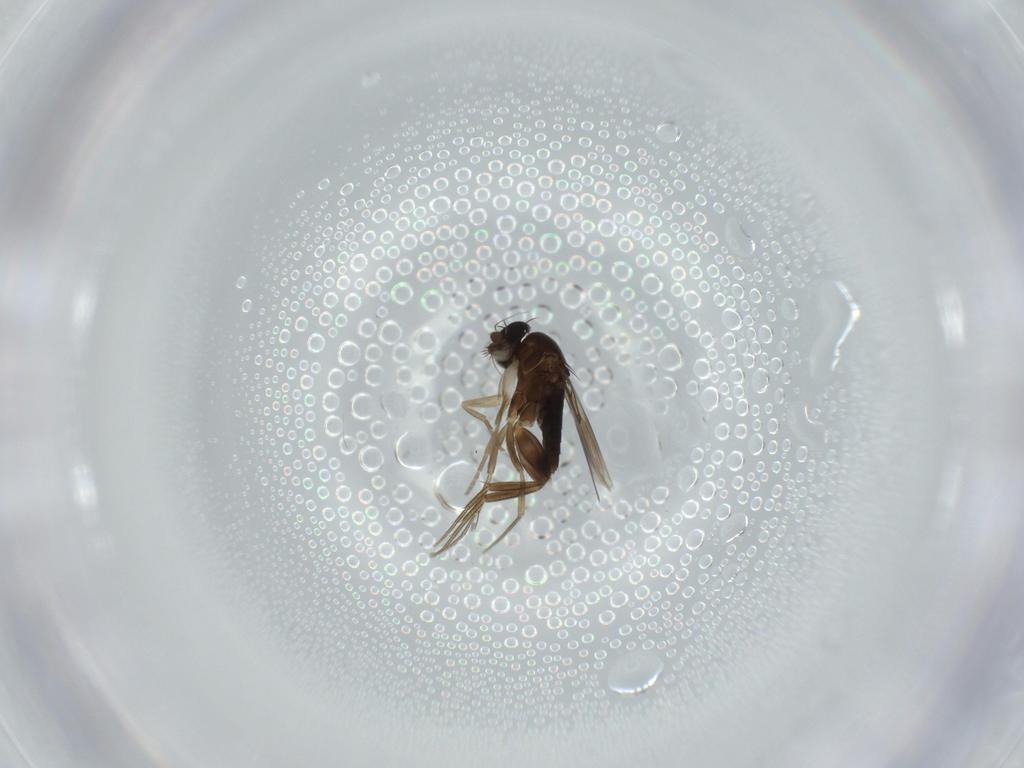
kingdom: Animalia
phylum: Arthropoda
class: Insecta
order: Diptera
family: Phoridae
